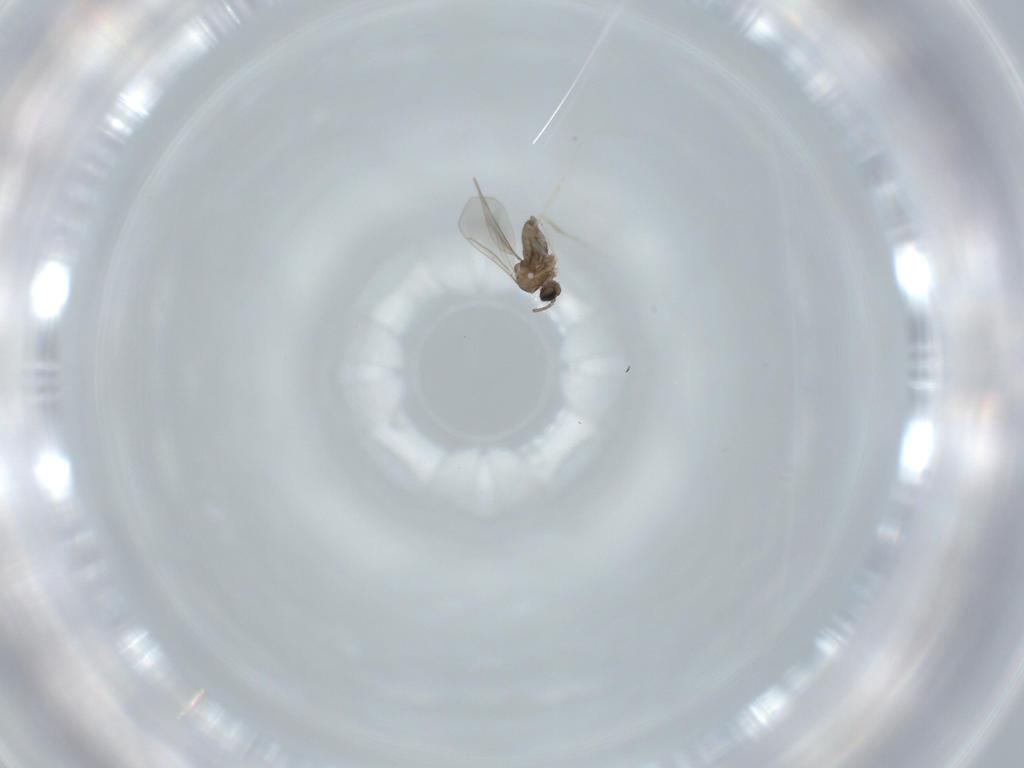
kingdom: Animalia
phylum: Arthropoda
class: Insecta
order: Diptera
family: Cecidomyiidae
